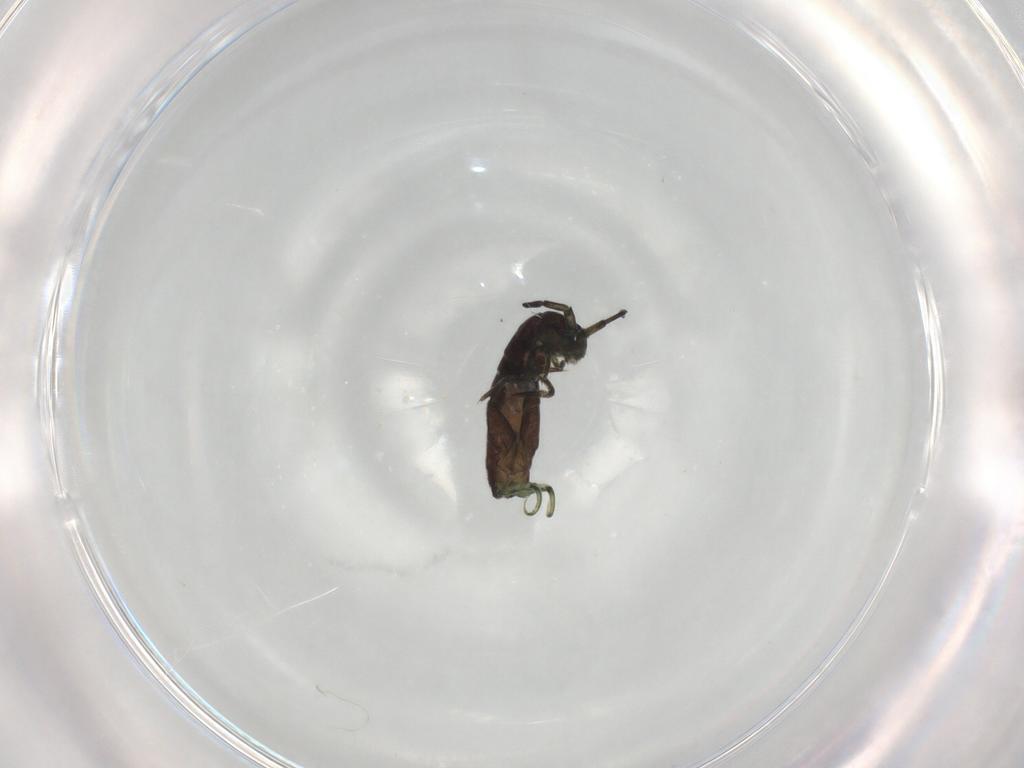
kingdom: Animalia
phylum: Arthropoda
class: Collembola
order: Entomobryomorpha
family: Isotomidae
